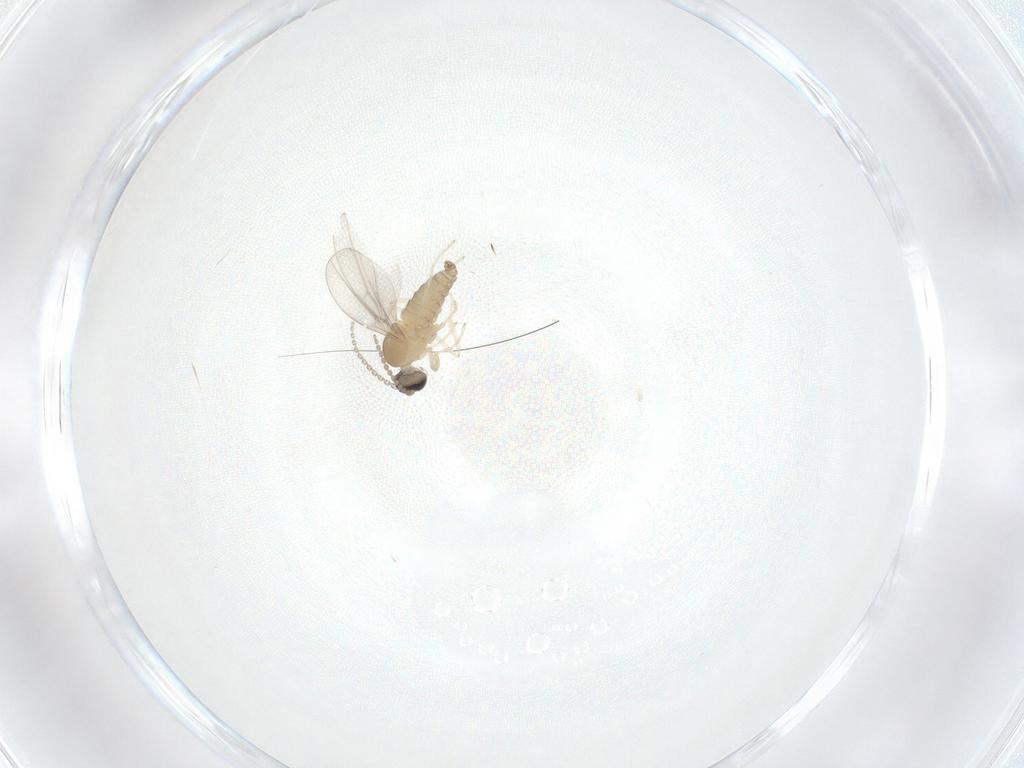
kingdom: Animalia
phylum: Arthropoda
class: Insecta
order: Diptera
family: Cecidomyiidae
